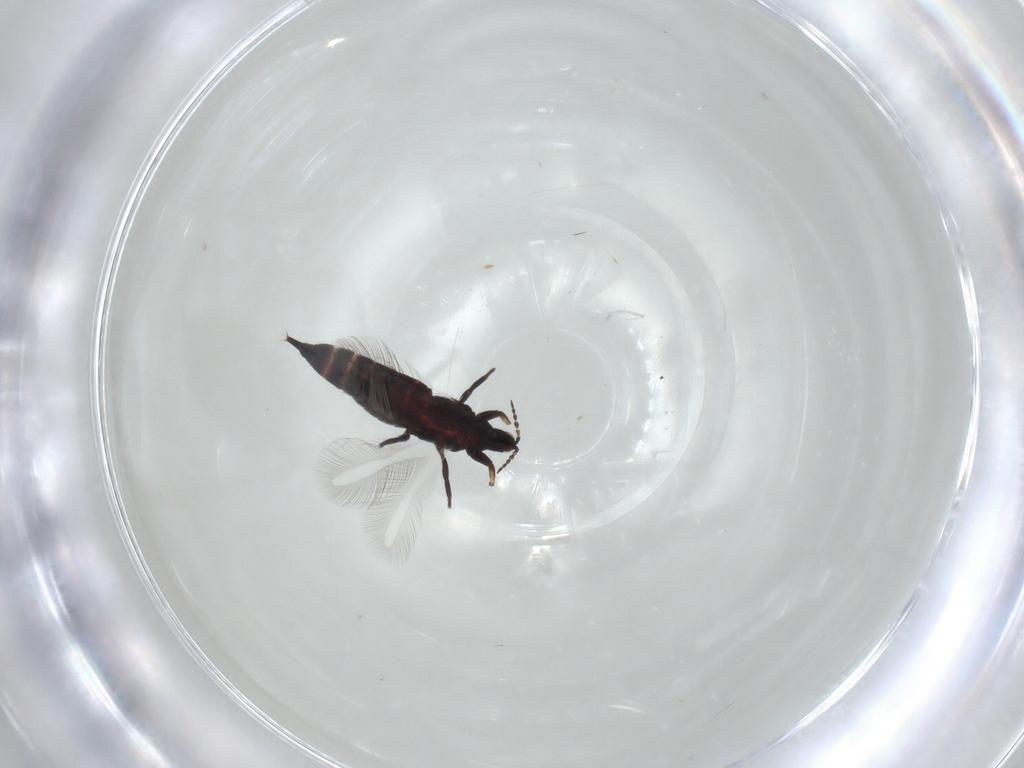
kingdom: Animalia
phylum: Arthropoda
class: Insecta
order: Thysanoptera
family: Phlaeothripidae
